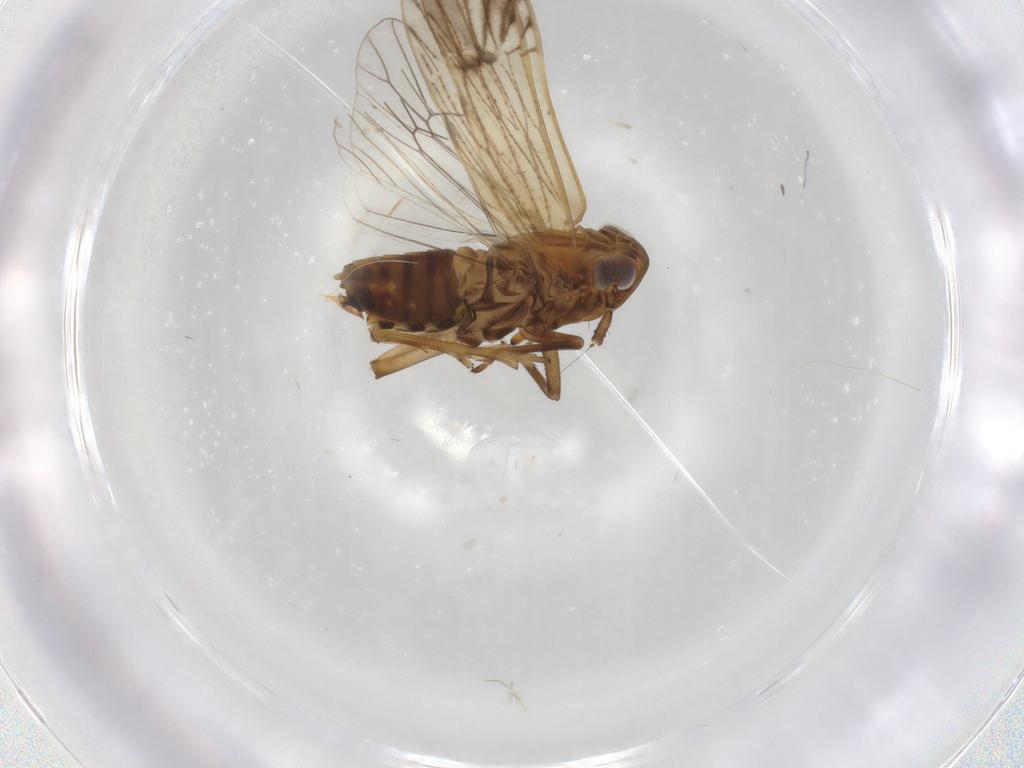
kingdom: Animalia
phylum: Arthropoda
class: Insecta
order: Hemiptera
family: Delphacidae
